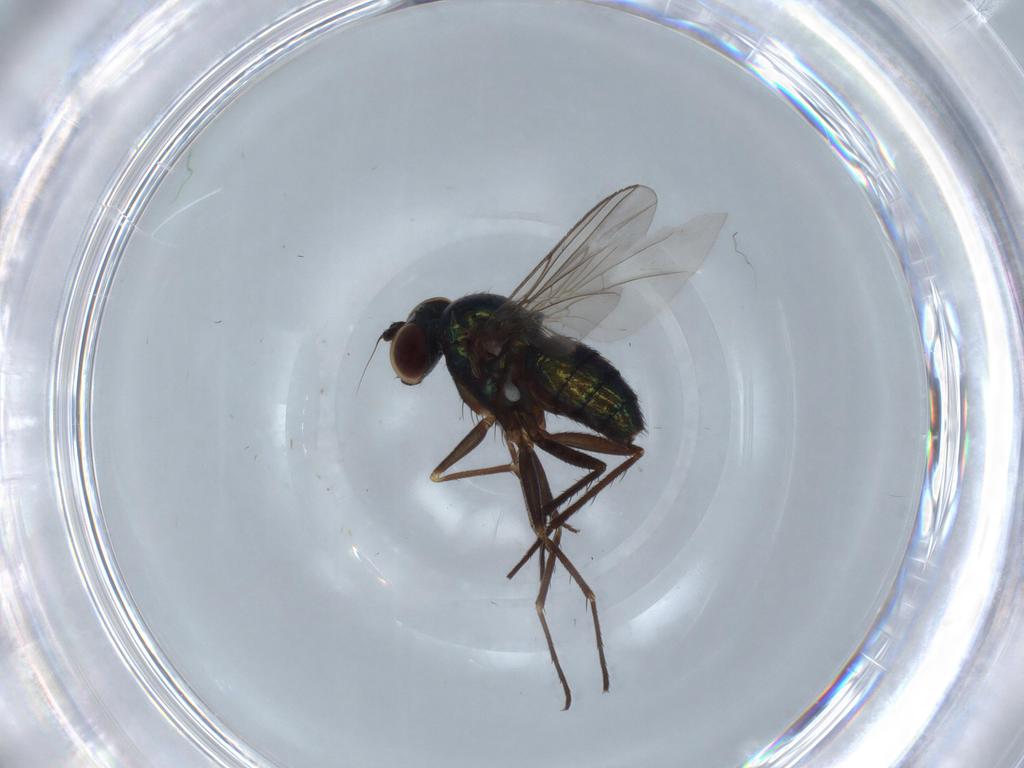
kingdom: Animalia
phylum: Arthropoda
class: Insecta
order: Diptera
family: Dolichopodidae
